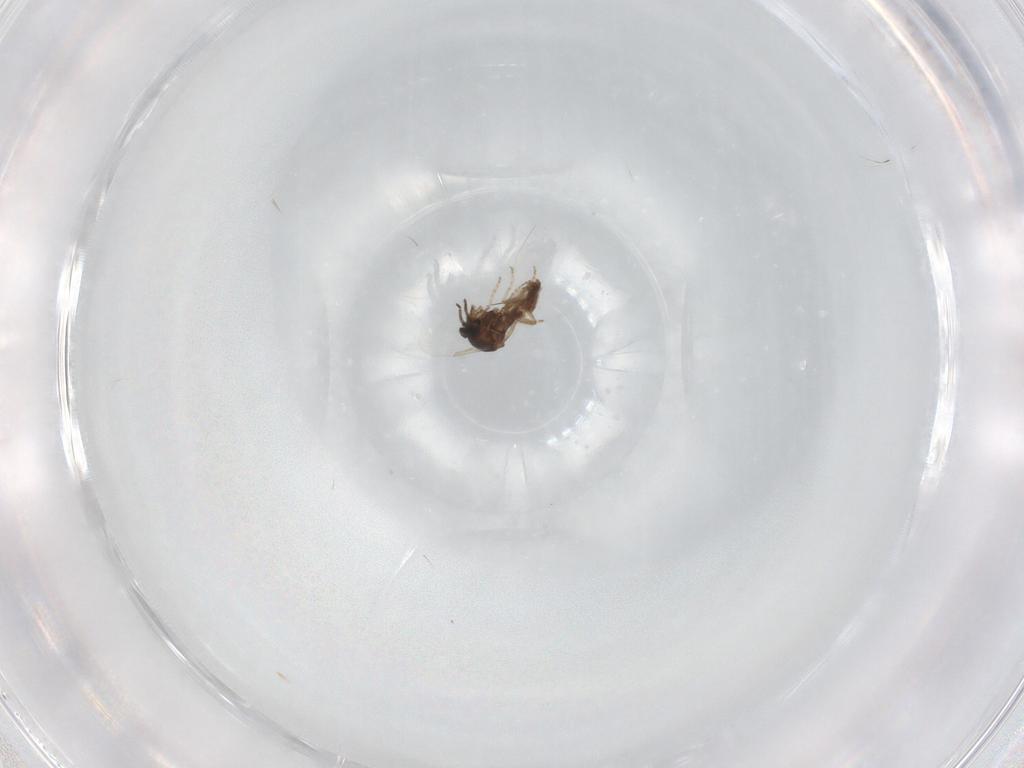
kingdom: Animalia
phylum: Arthropoda
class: Insecta
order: Diptera
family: Ceratopogonidae
